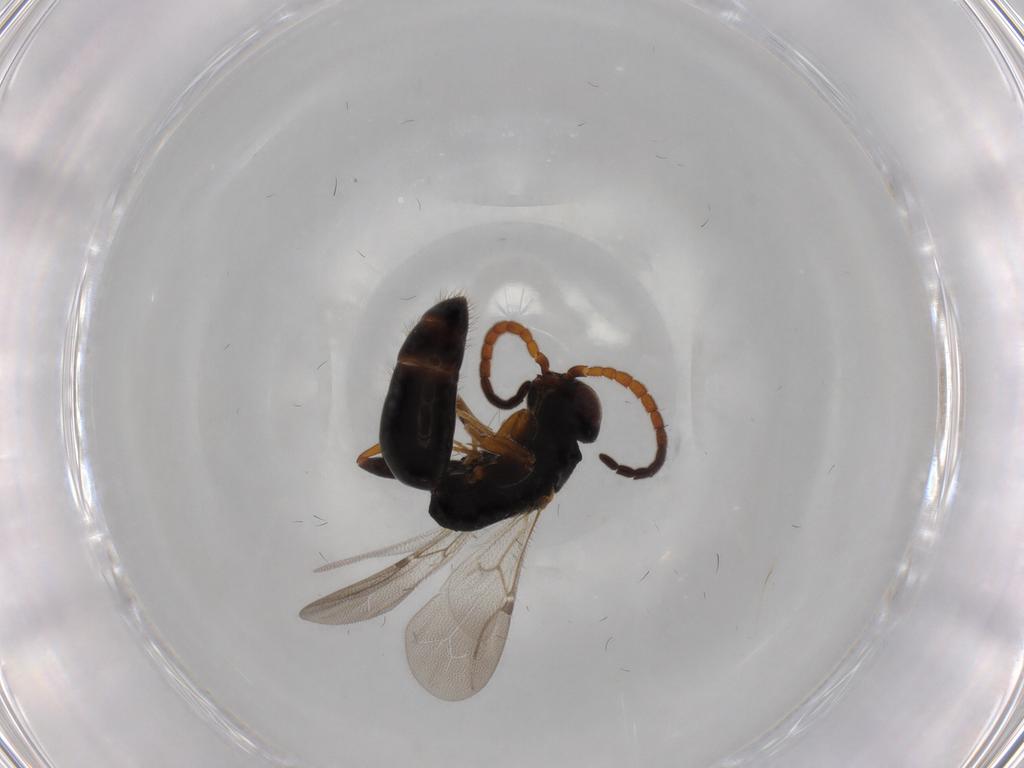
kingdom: Animalia
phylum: Arthropoda
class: Insecta
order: Hymenoptera
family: Bethylidae
